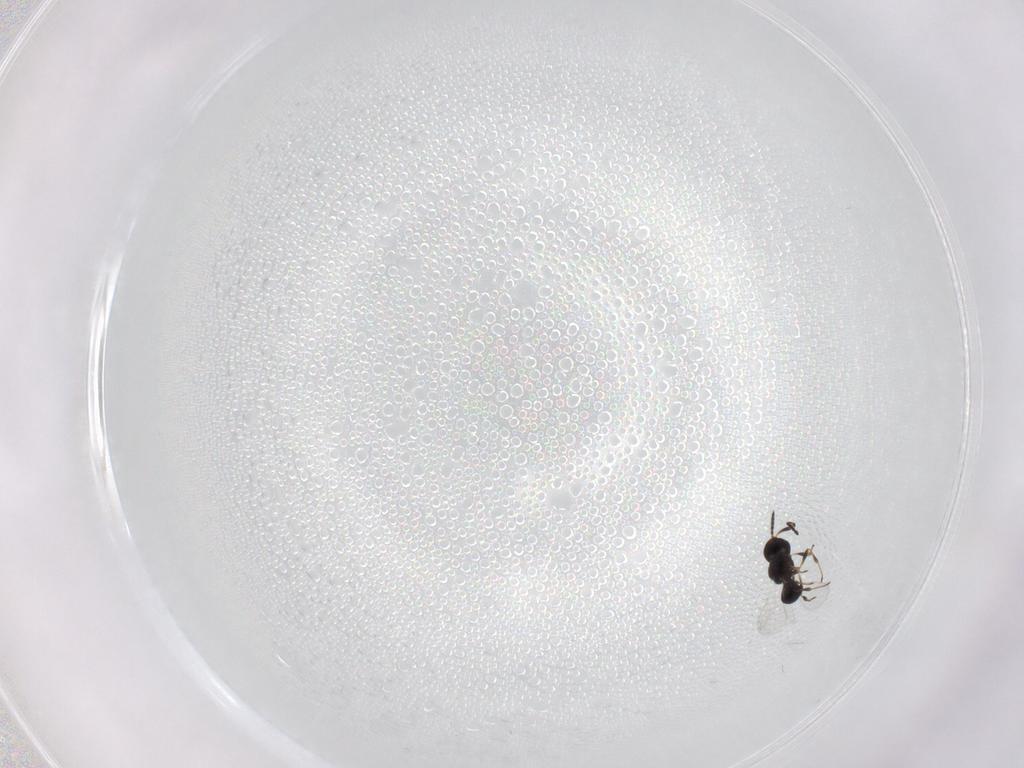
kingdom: Animalia
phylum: Arthropoda
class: Insecta
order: Hymenoptera
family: Platygastridae
